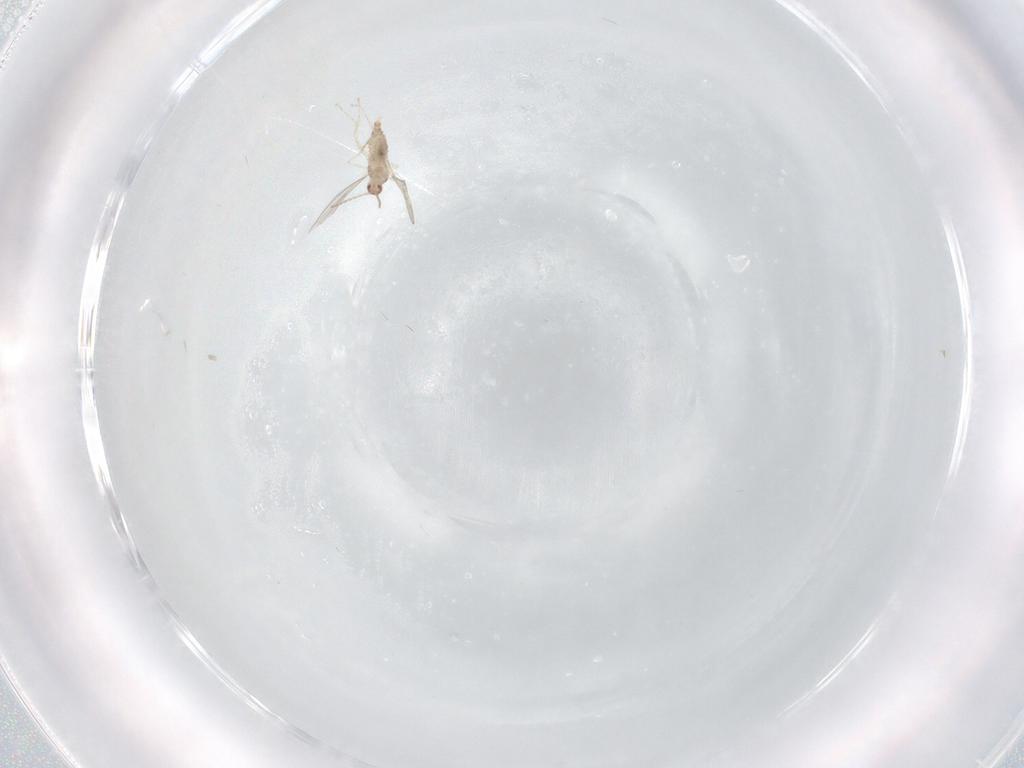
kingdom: Animalia
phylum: Arthropoda
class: Insecta
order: Diptera
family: Cecidomyiidae
